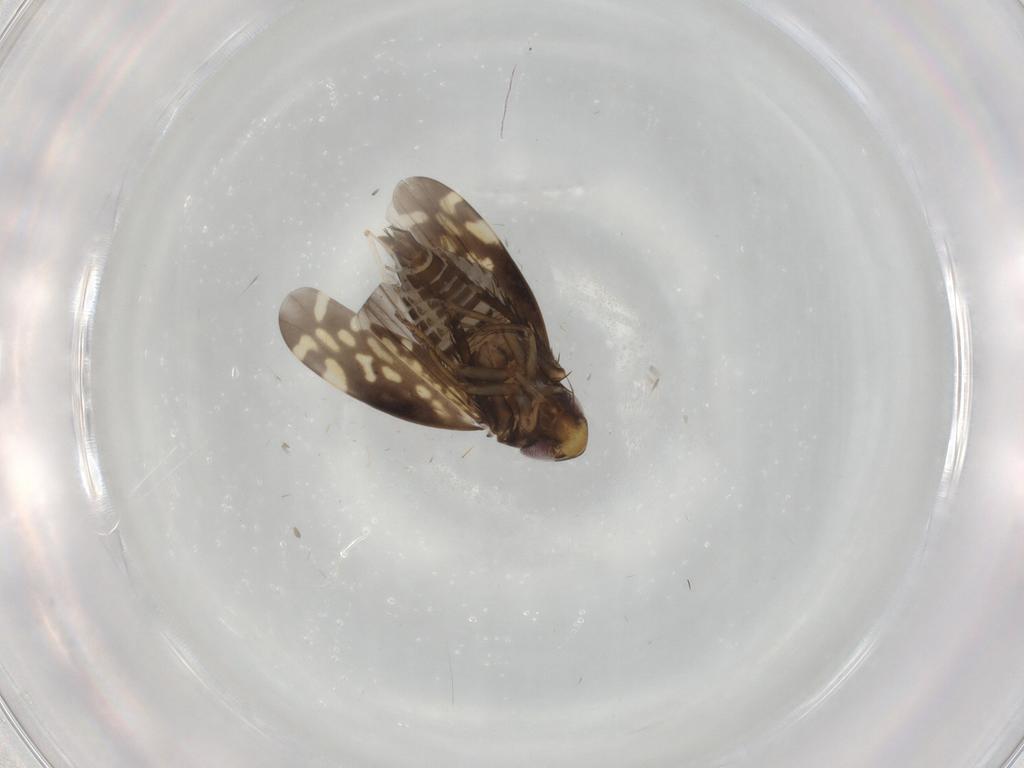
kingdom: Animalia
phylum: Arthropoda
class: Insecta
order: Hemiptera
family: Cicadellidae
